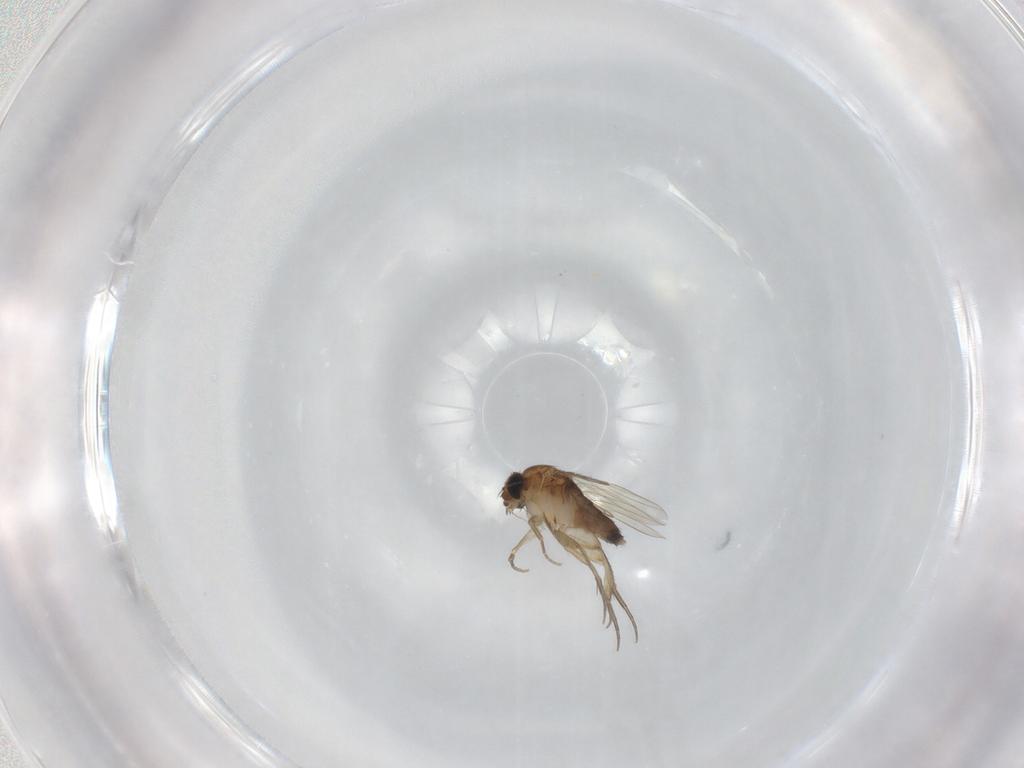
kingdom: Animalia
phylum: Arthropoda
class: Insecta
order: Diptera
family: Phoridae
